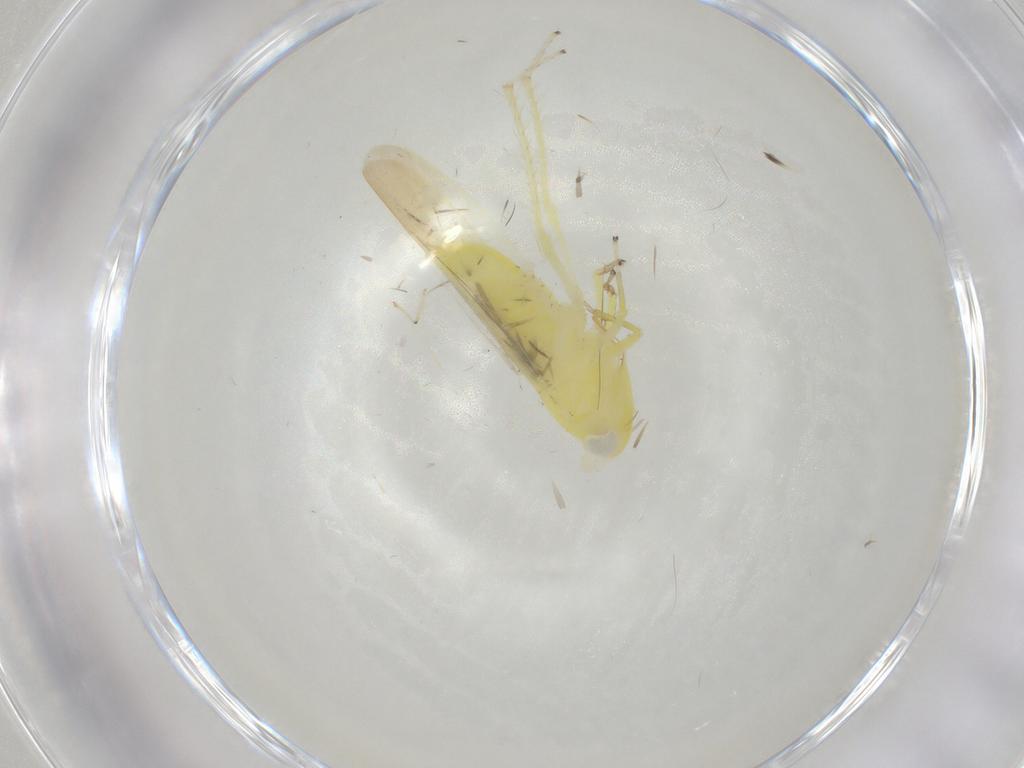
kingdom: Animalia
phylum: Arthropoda
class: Insecta
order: Hemiptera
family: Cicadellidae
